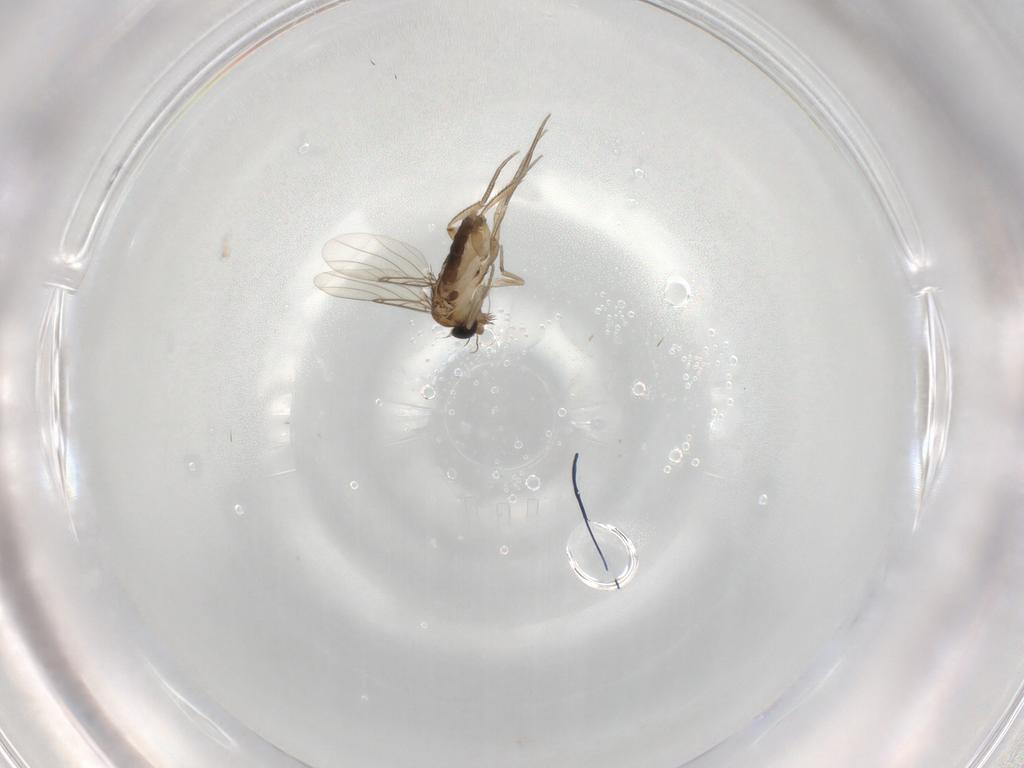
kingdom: Animalia
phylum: Arthropoda
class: Insecta
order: Diptera
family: Phoridae
